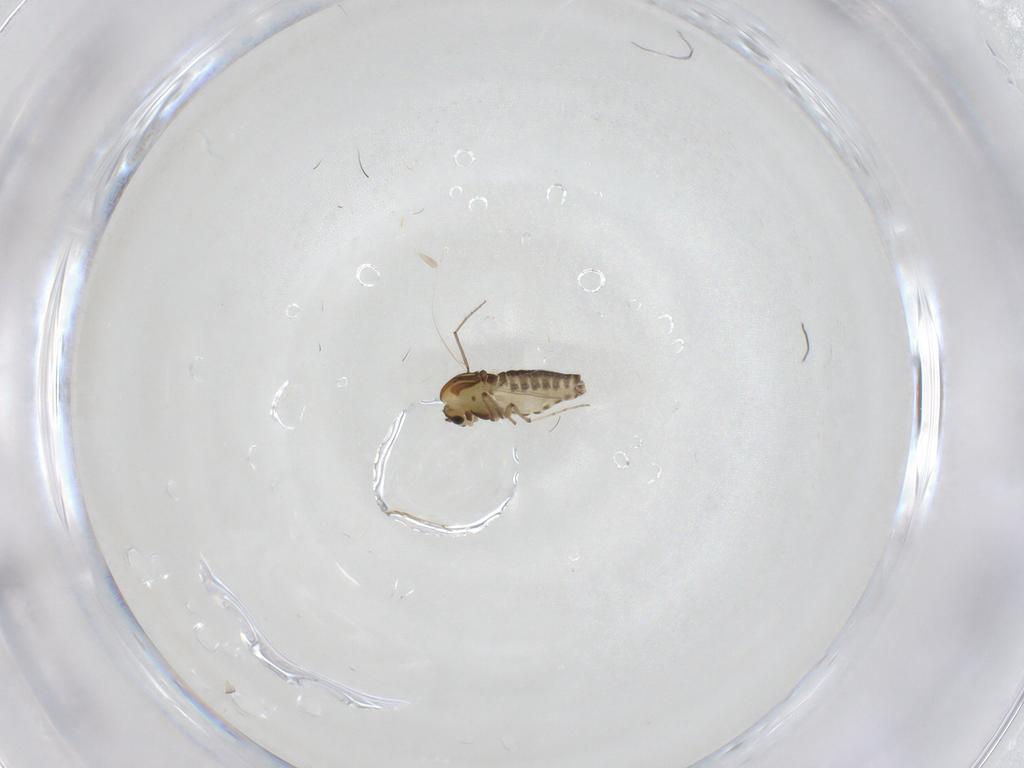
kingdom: Animalia
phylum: Arthropoda
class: Insecta
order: Diptera
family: Chironomidae
